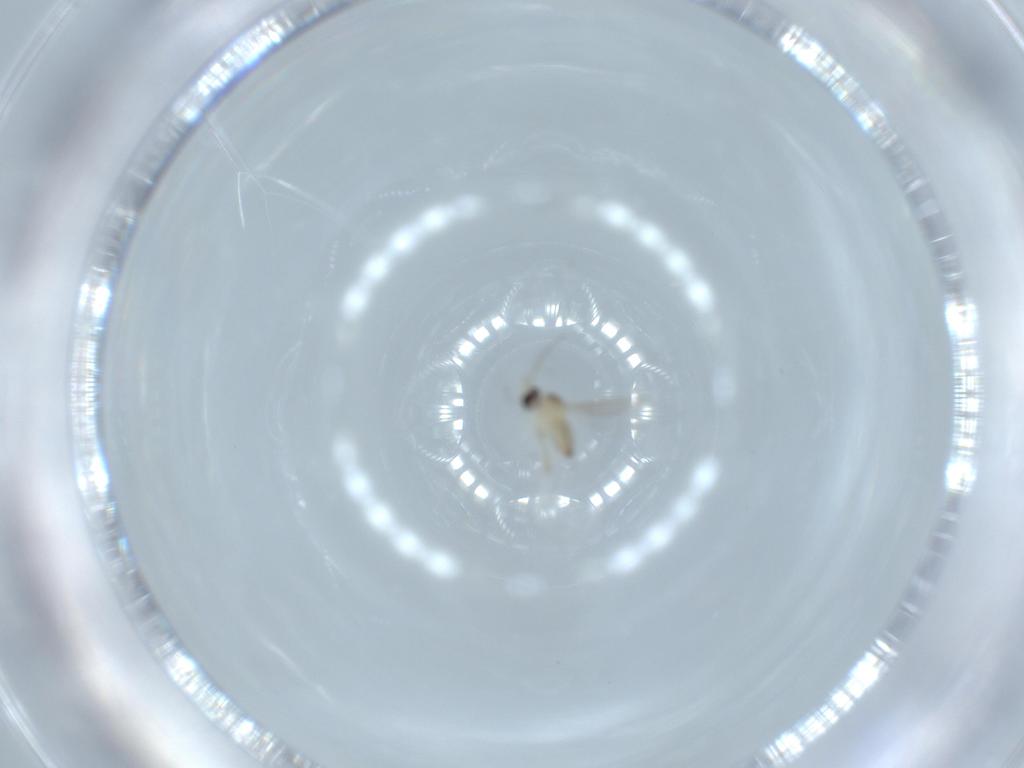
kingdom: Animalia
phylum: Arthropoda
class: Insecta
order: Diptera
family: Cecidomyiidae
